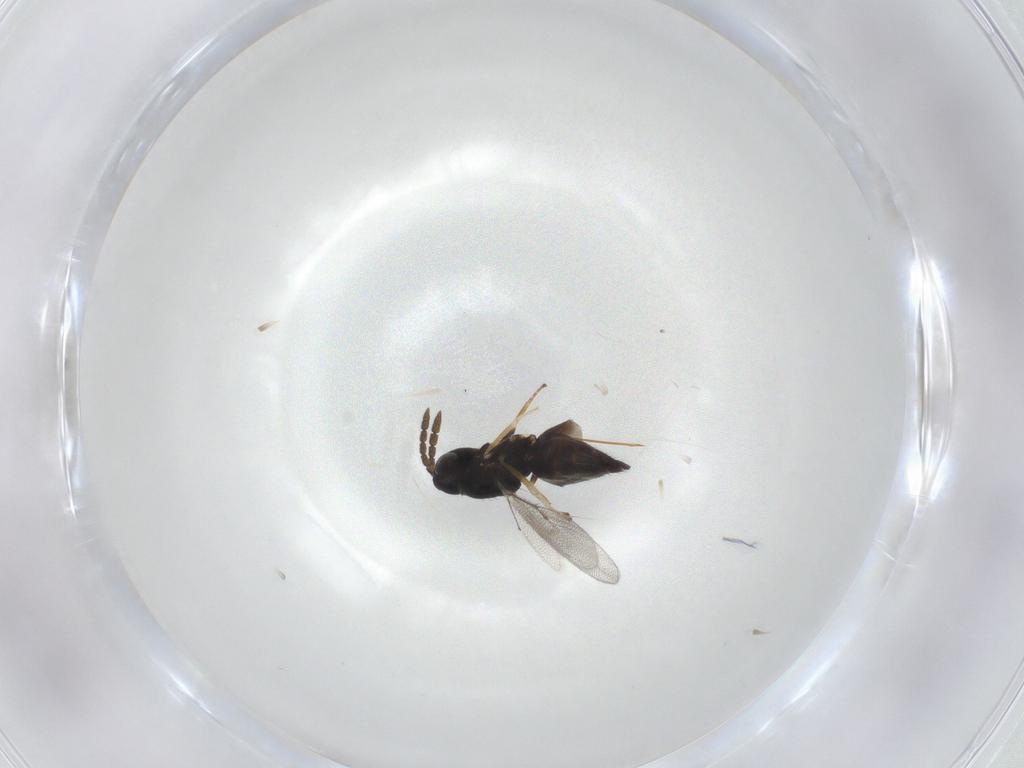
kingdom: Animalia
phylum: Arthropoda
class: Insecta
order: Hymenoptera
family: Eulophidae
